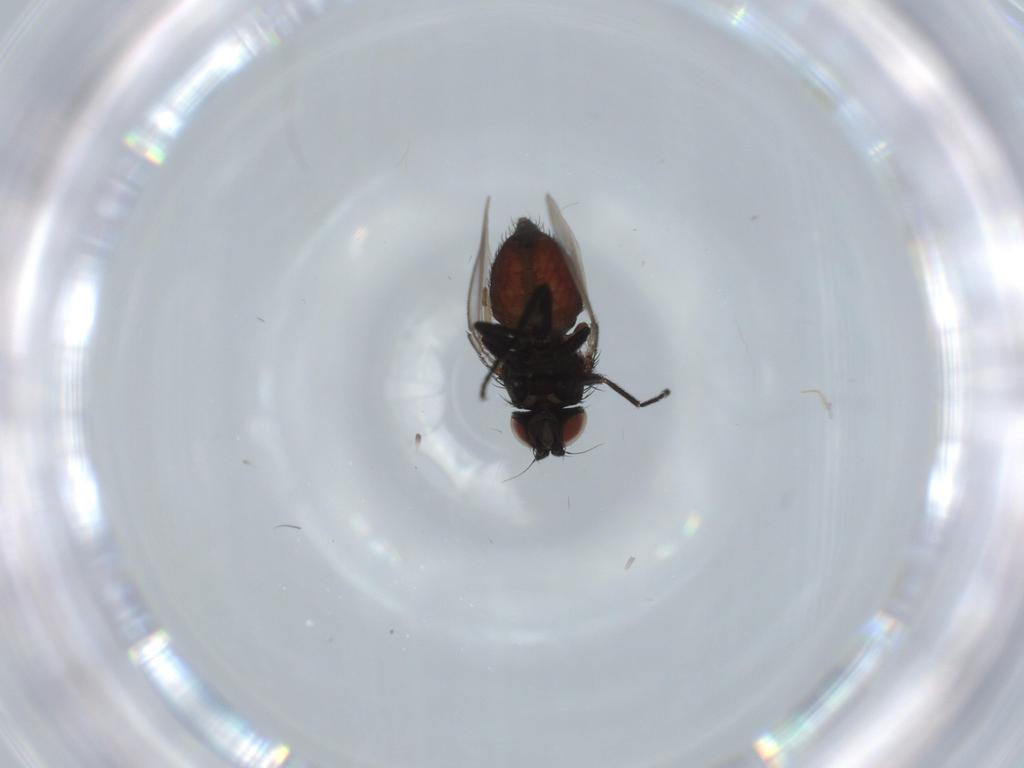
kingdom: Animalia
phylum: Arthropoda
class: Insecta
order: Diptera
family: Milichiidae
